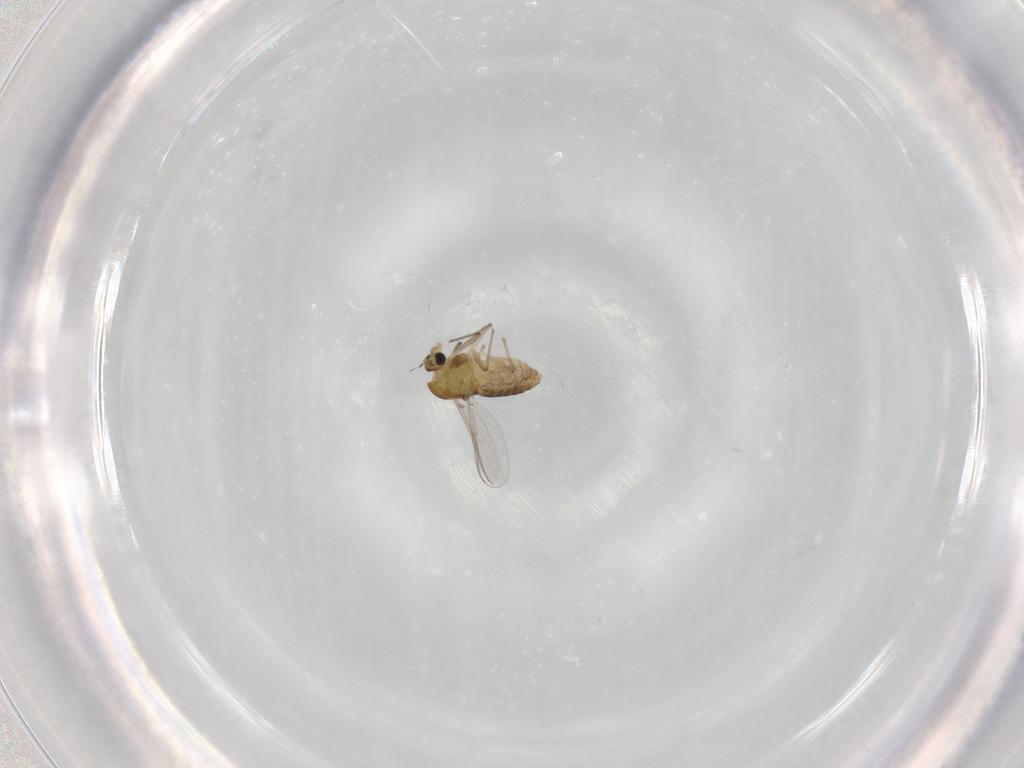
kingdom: Animalia
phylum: Arthropoda
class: Insecta
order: Diptera
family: Chironomidae
